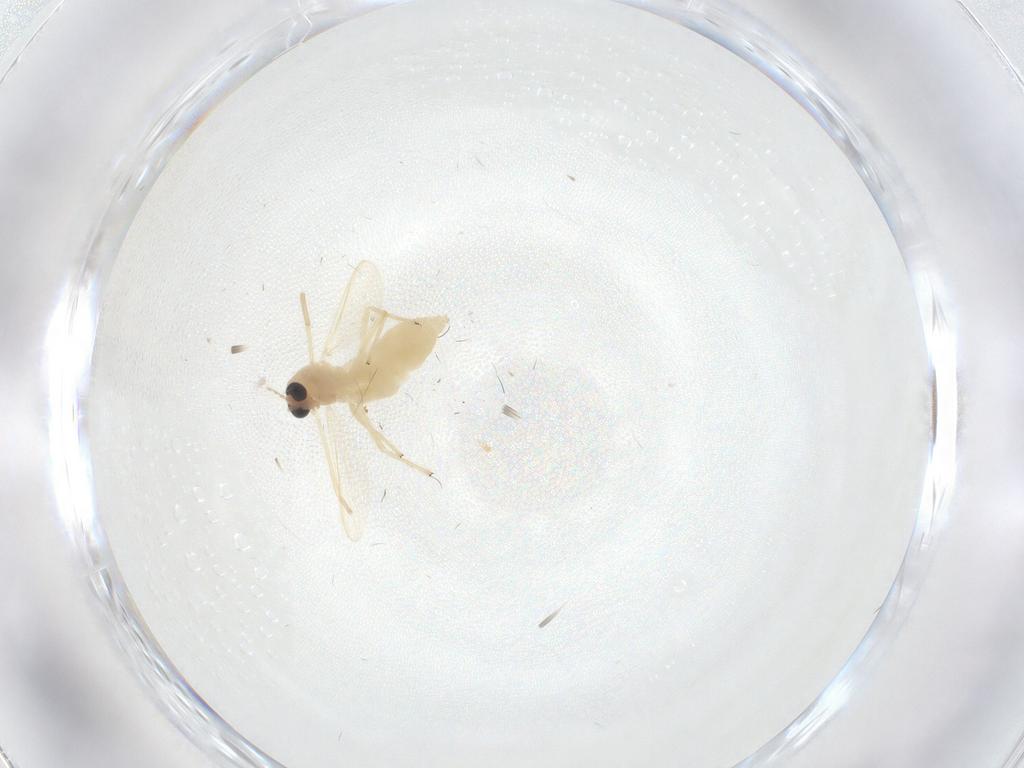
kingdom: Animalia
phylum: Arthropoda
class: Insecta
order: Diptera
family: Chironomidae
